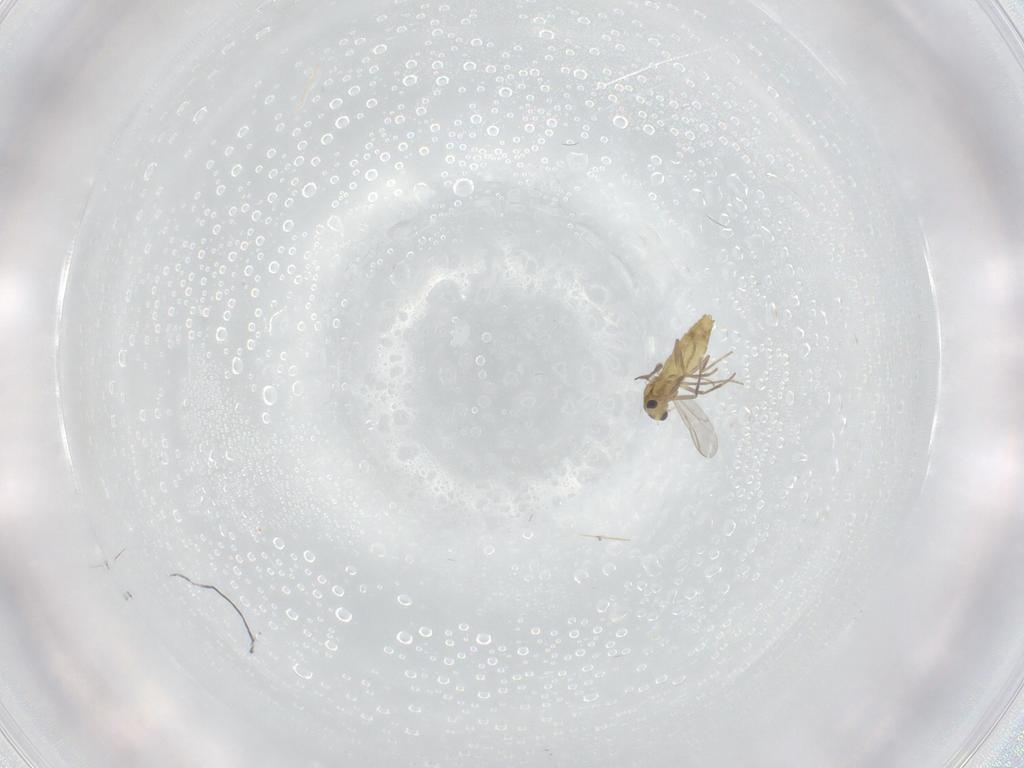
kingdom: Animalia
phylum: Arthropoda
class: Insecta
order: Diptera
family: Chironomidae
